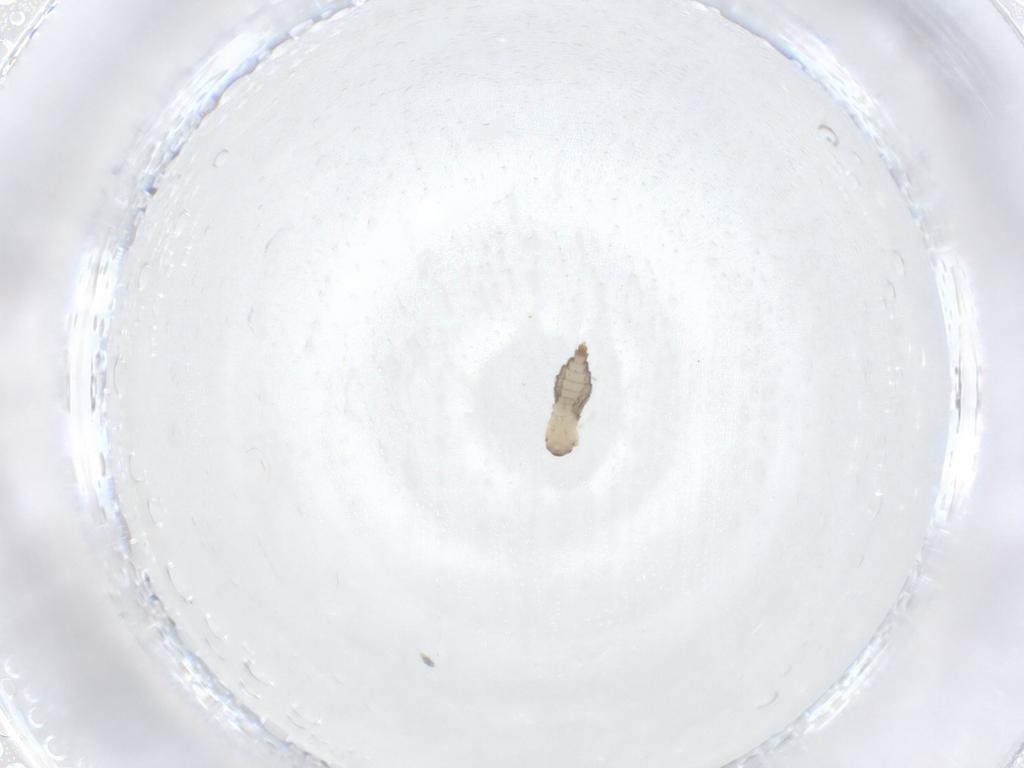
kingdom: Animalia
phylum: Arthropoda
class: Insecta
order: Diptera
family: Cecidomyiidae
